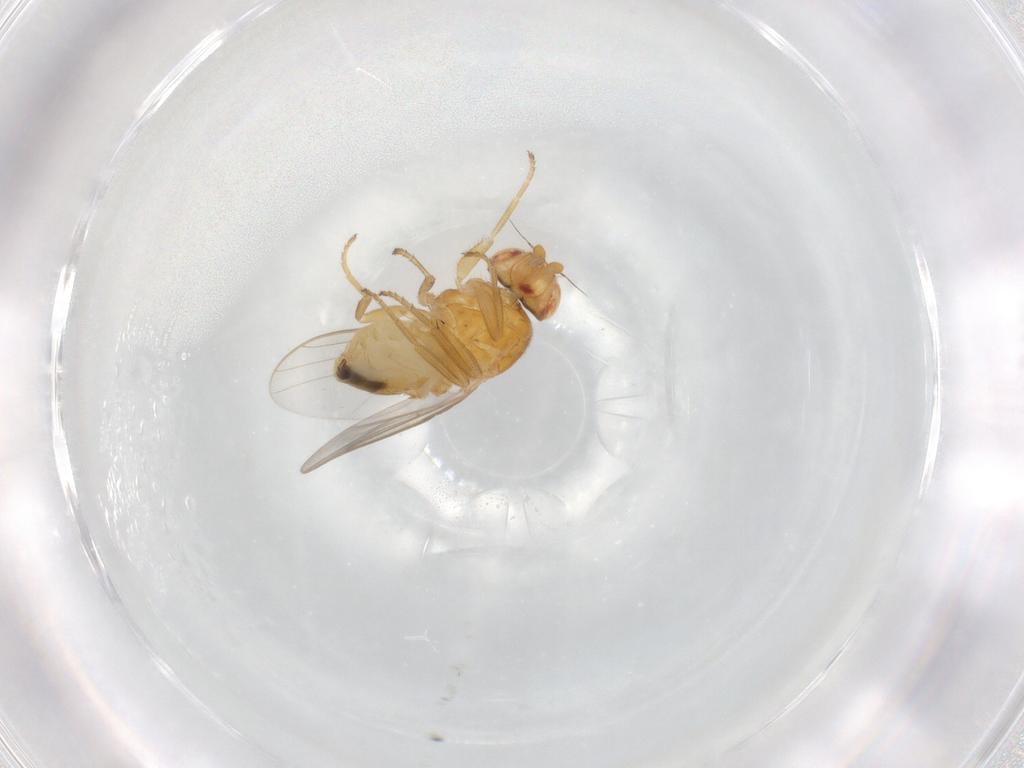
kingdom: Animalia
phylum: Arthropoda
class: Insecta
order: Diptera
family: Chloropidae
